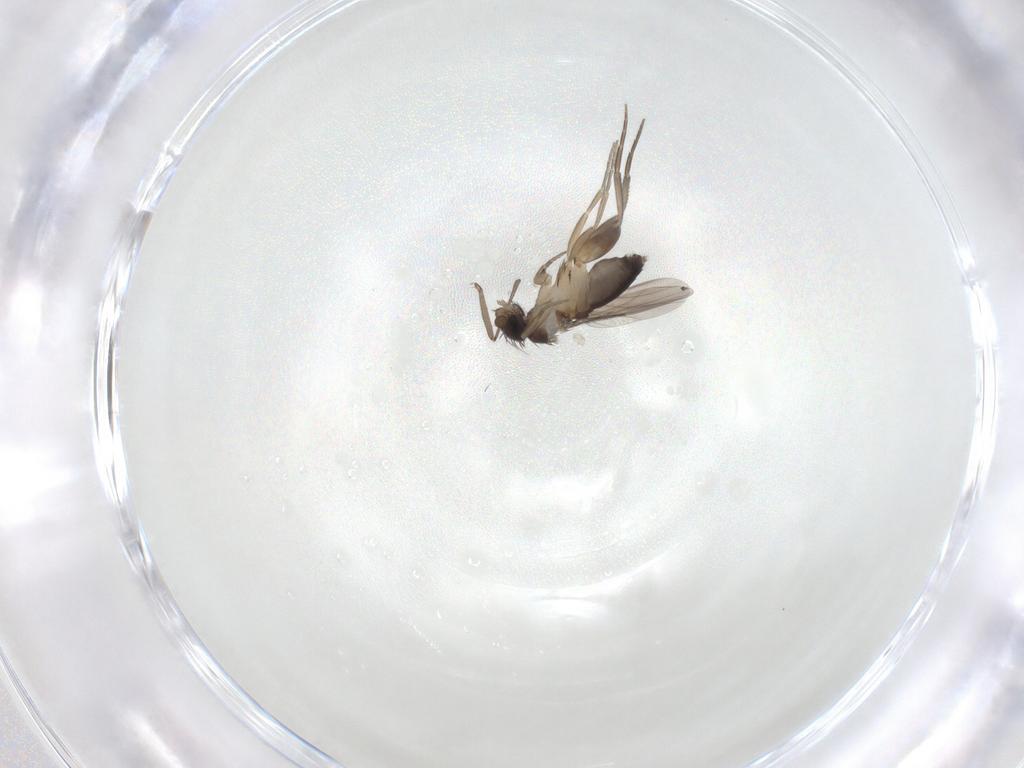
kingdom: Animalia
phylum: Arthropoda
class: Insecta
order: Diptera
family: Phoridae
